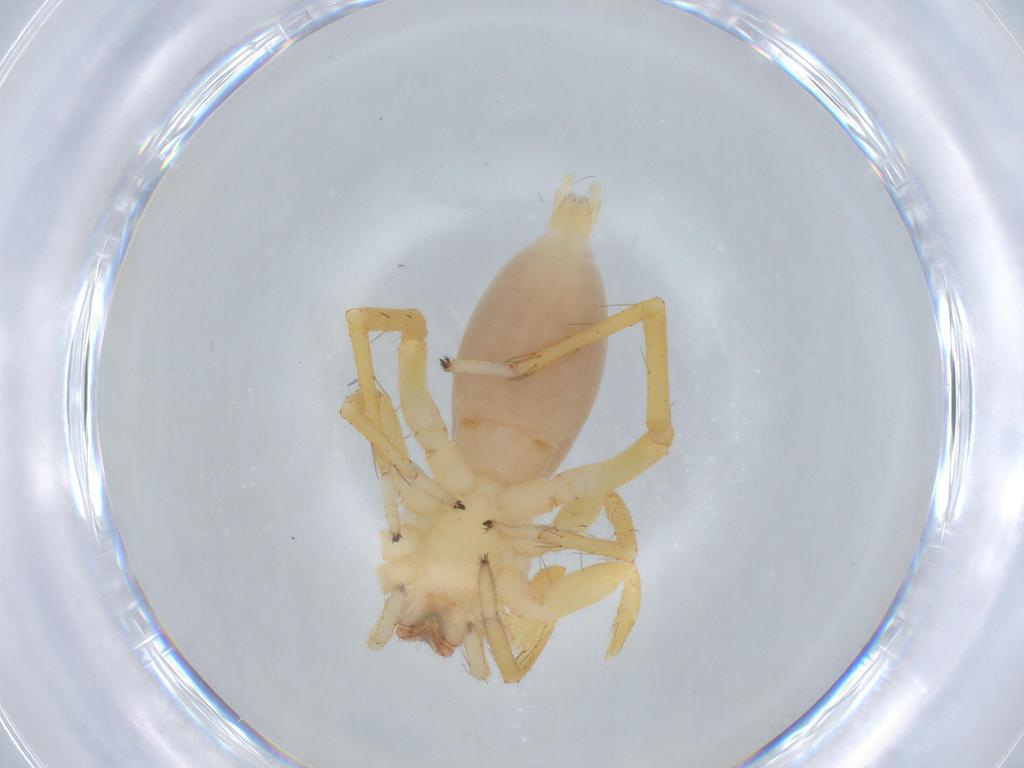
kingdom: Animalia
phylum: Arthropoda
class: Arachnida
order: Araneae
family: Clubionidae
